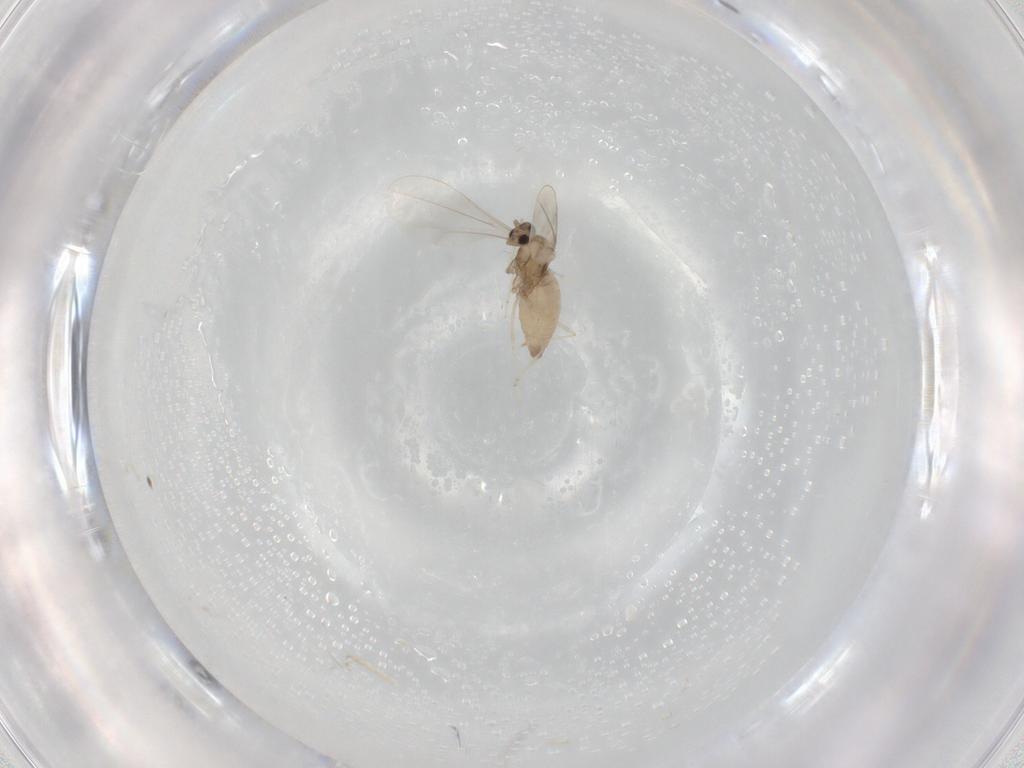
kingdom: Animalia
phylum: Arthropoda
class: Insecta
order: Diptera
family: Cecidomyiidae
